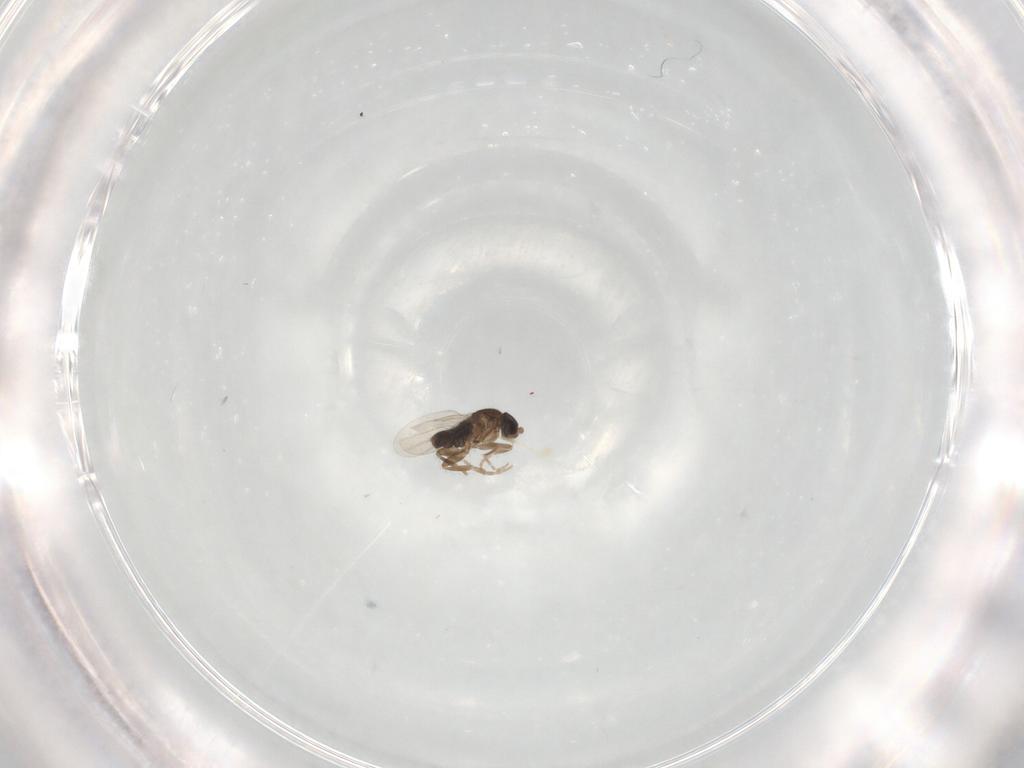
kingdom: Animalia
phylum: Arthropoda
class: Insecta
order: Diptera
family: Phoridae
